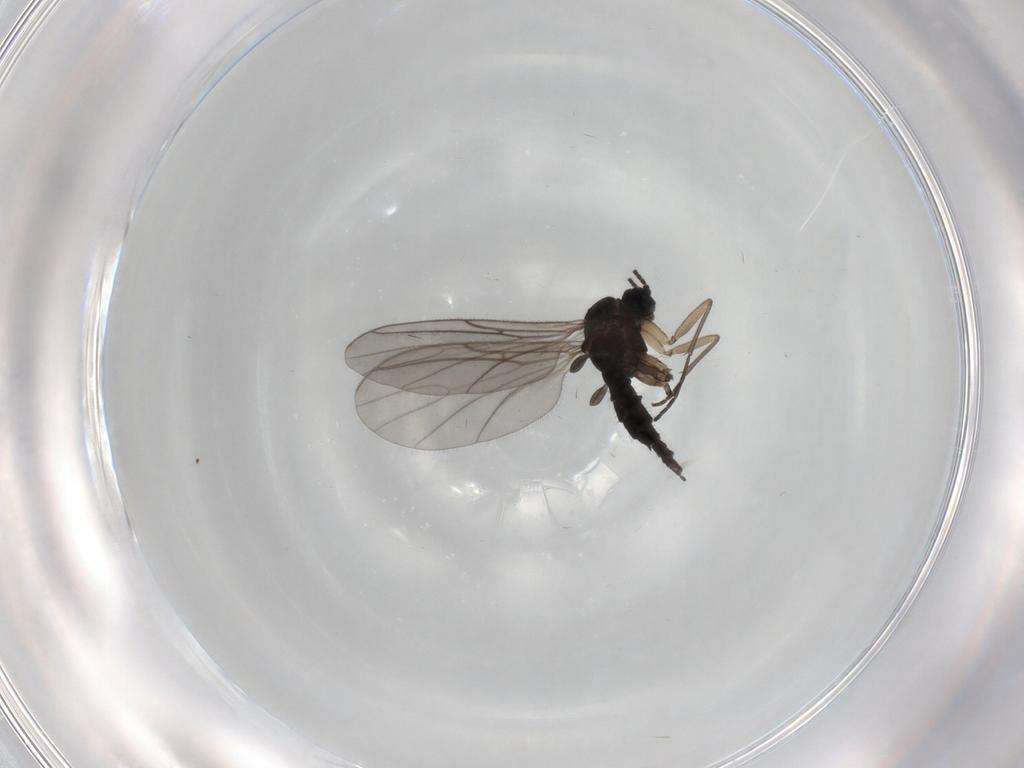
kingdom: Animalia
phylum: Arthropoda
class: Insecta
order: Diptera
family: Sciaridae
